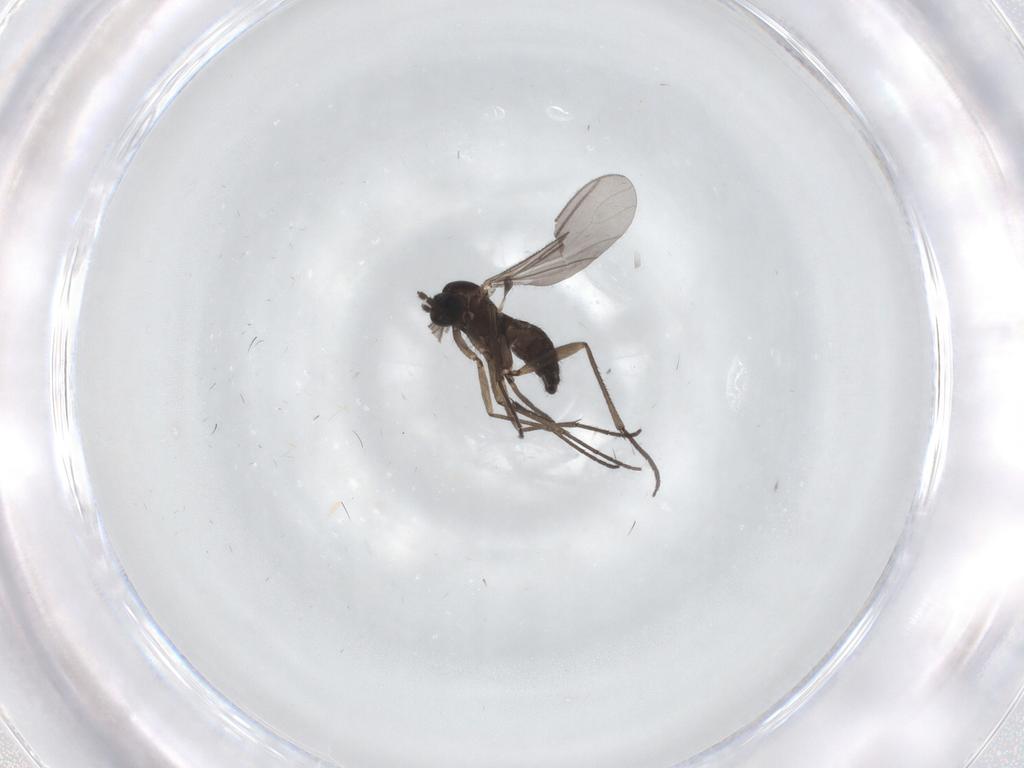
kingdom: Animalia
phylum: Arthropoda
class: Insecta
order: Diptera
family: Sciaridae
